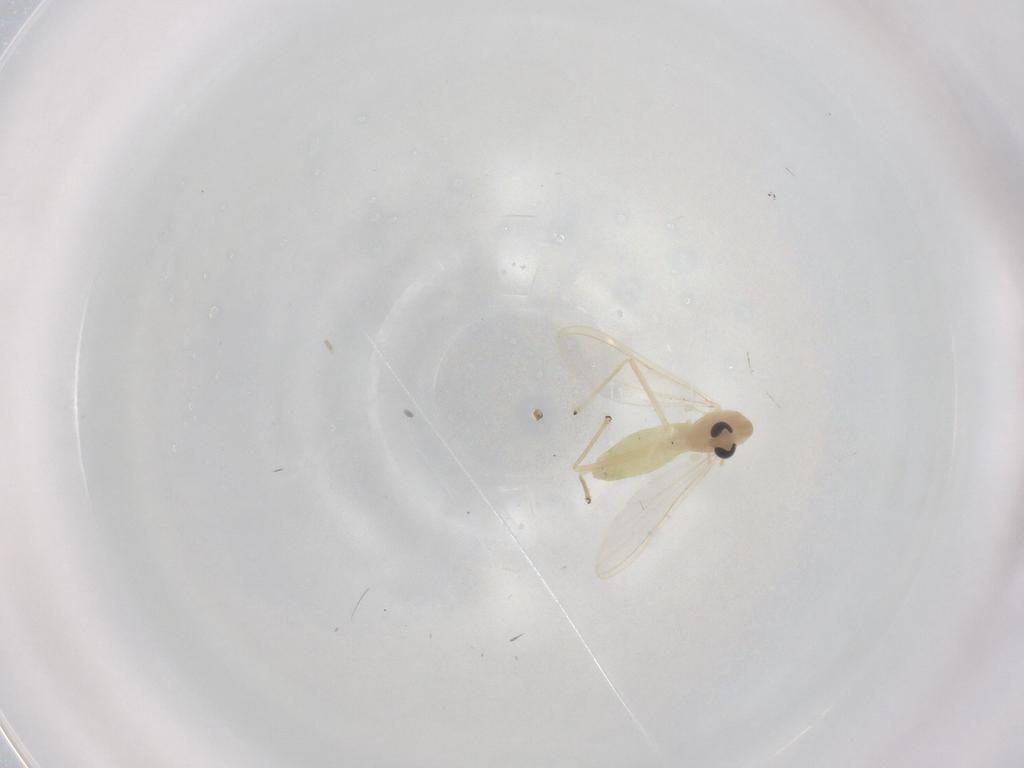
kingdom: Animalia
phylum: Arthropoda
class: Insecta
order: Diptera
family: Chironomidae
